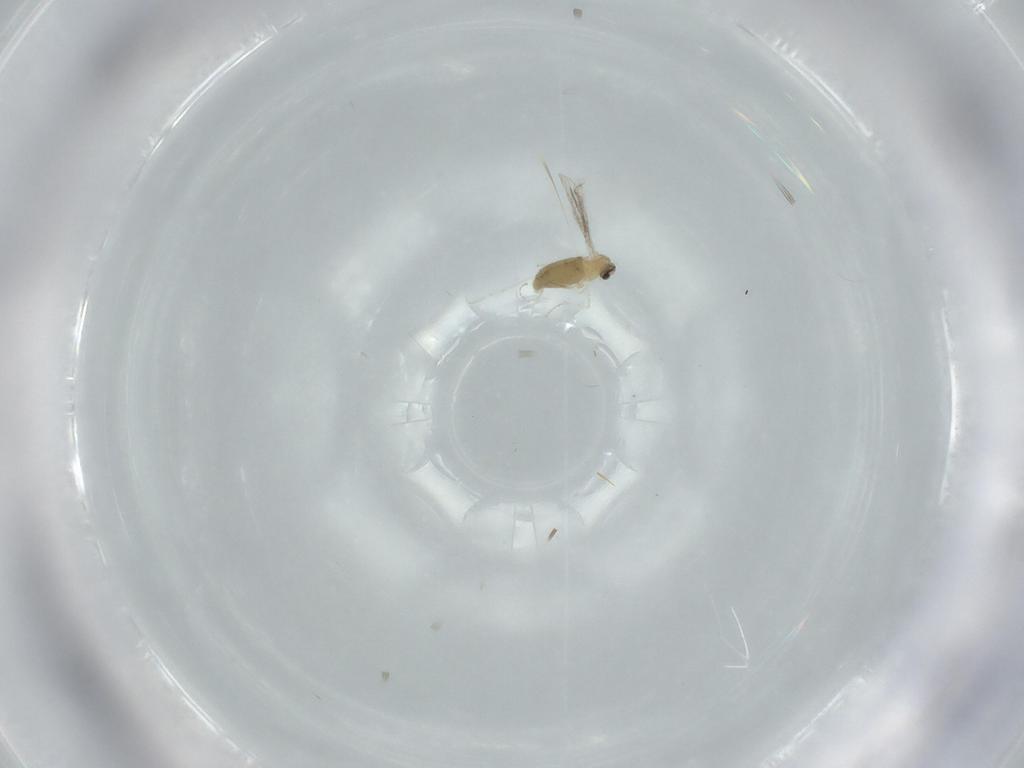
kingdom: Animalia
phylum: Arthropoda
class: Insecta
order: Diptera
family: Cecidomyiidae
